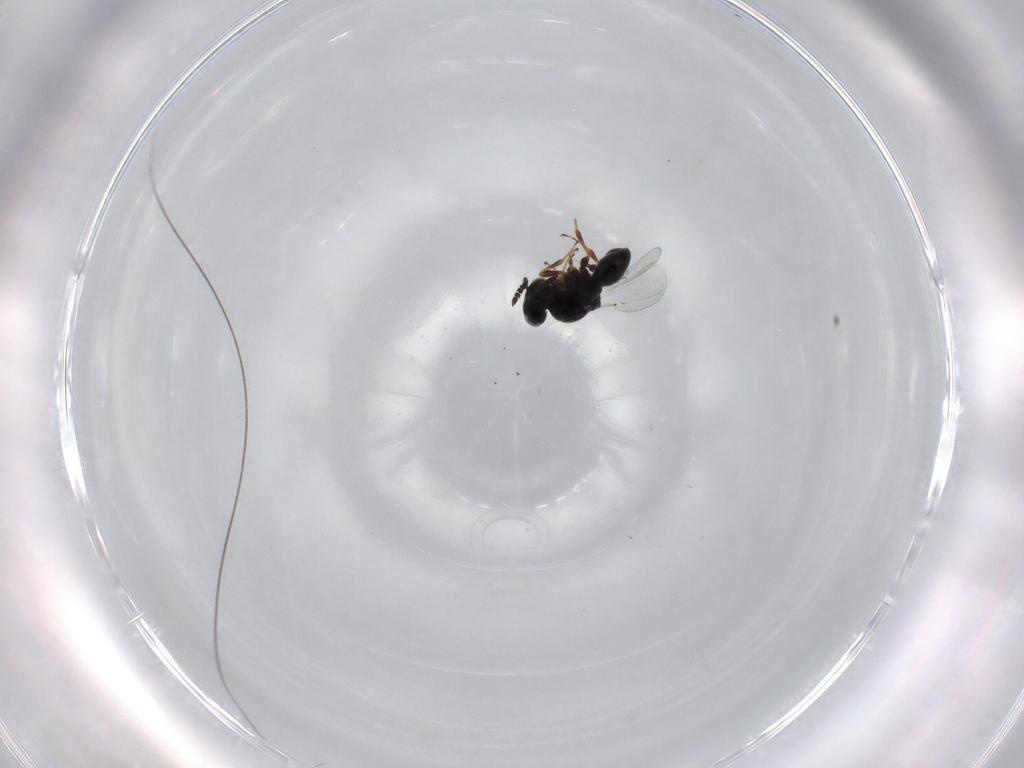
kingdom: Animalia
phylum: Arthropoda
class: Insecta
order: Hymenoptera
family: Platygastridae
